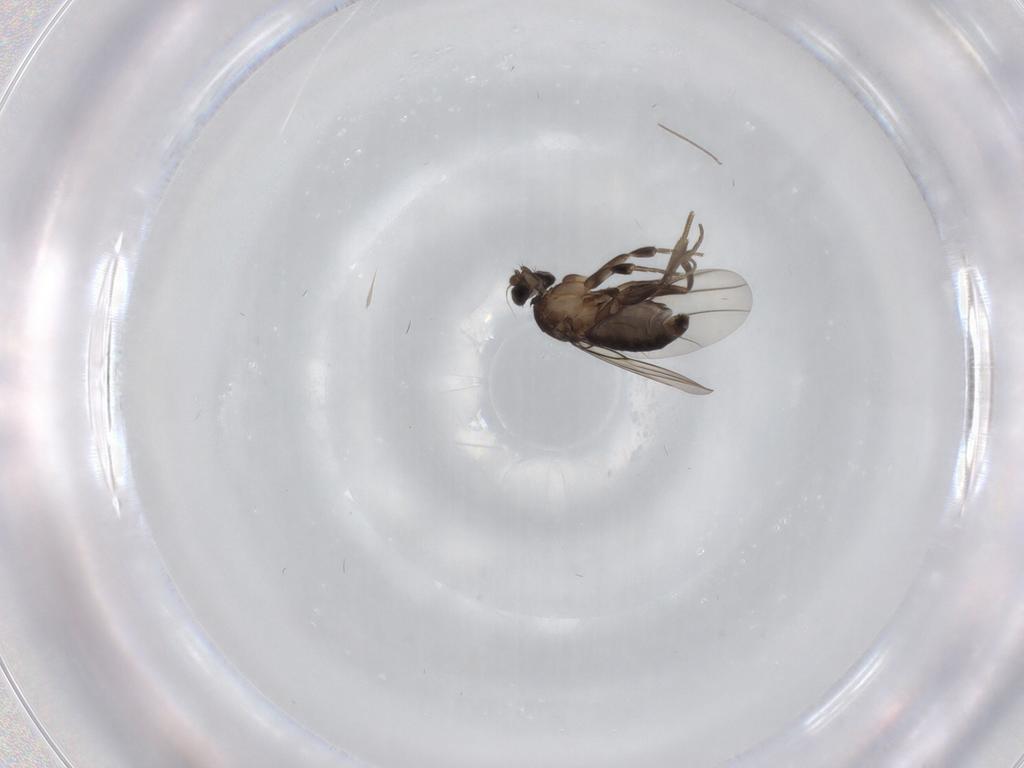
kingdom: Animalia
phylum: Arthropoda
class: Insecta
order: Diptera
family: Phoridae
